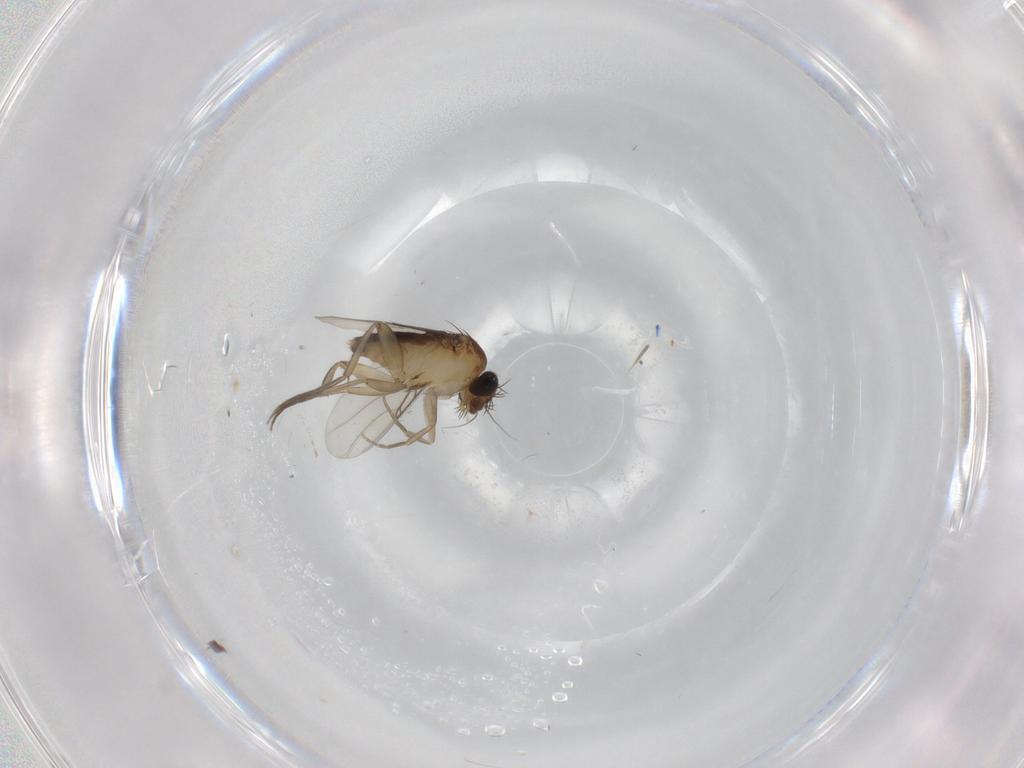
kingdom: Animalia
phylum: Arthropoda
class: Insecta
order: Diptera
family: Phoridae
